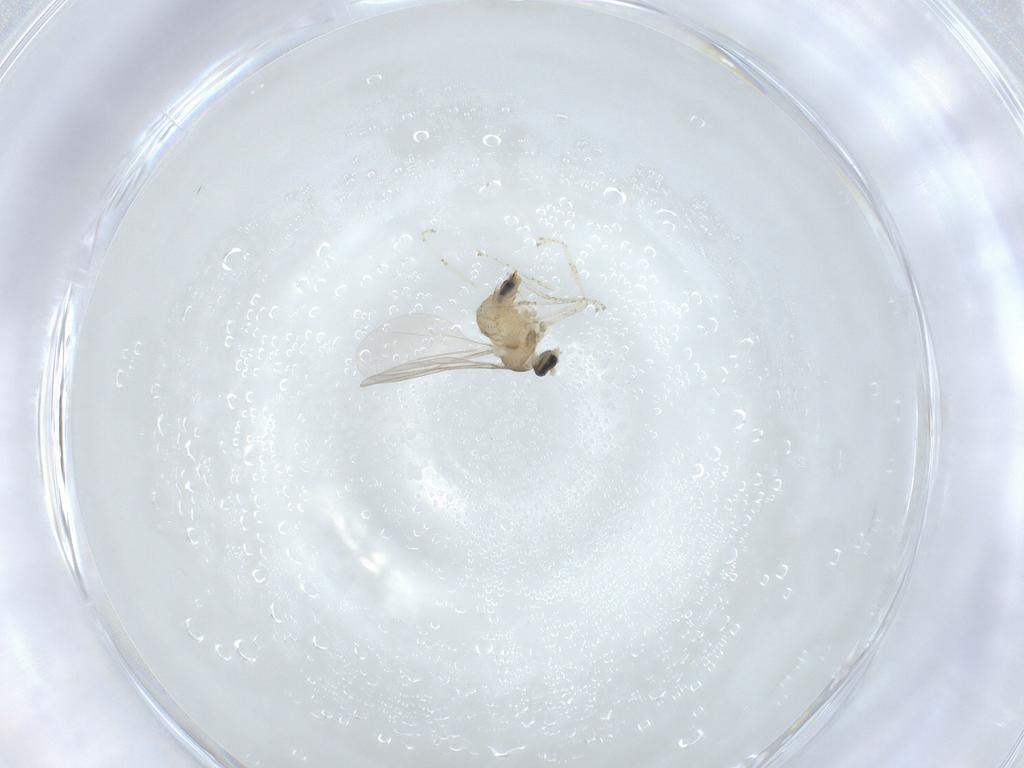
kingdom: Animalia
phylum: Arthropoda
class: Insecta
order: Diptera
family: Cecidomyiidae
